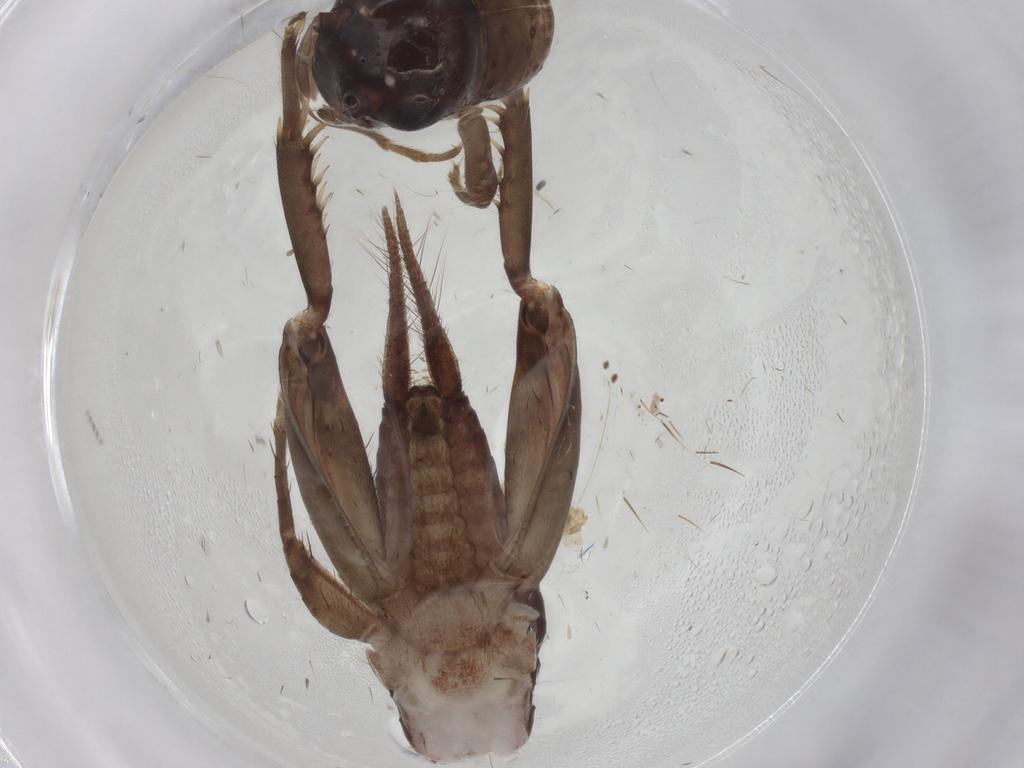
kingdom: Animalia
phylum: Arthropoda
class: Insecta
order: Orthoptera
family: Gryllidae
